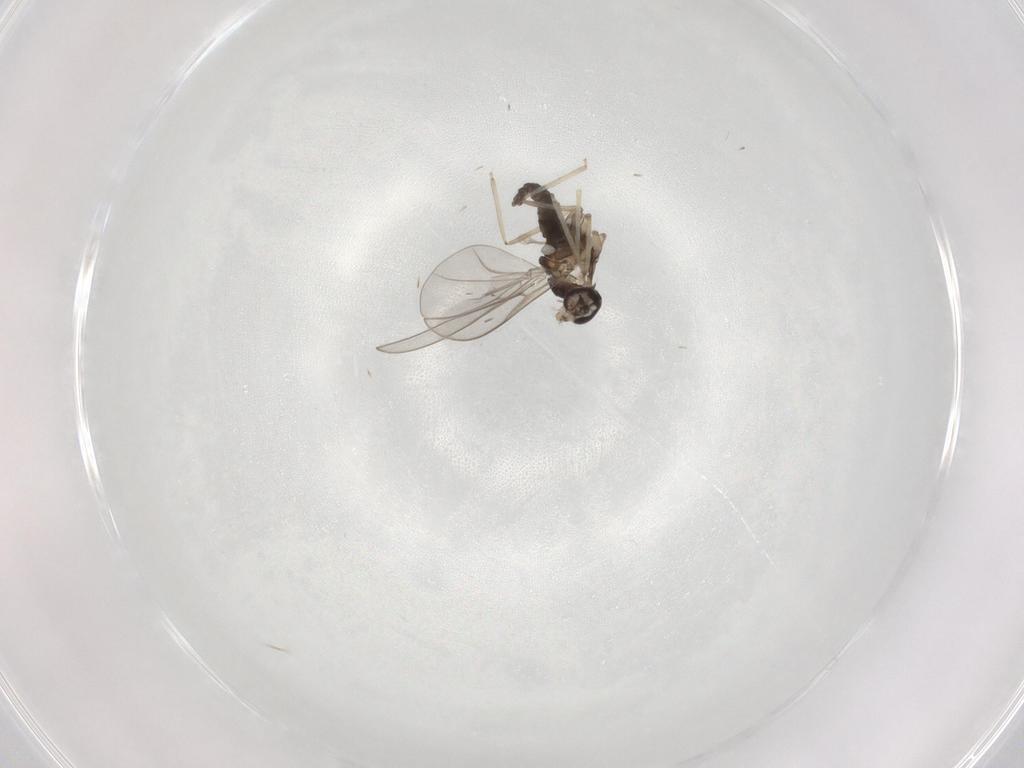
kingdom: Animalia
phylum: Arthropoda
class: Insecta
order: Diptera
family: Cecidomyiidae
